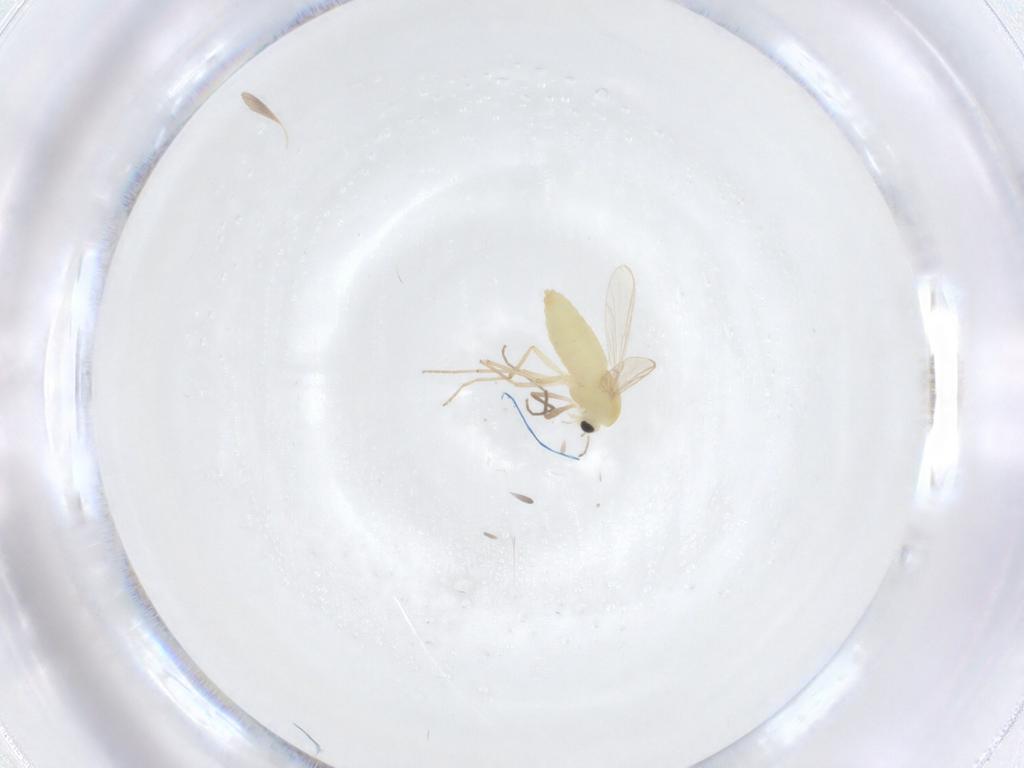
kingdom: Animalia
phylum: Arthropoda
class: Insecta
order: Diptera
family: Chironomidae
